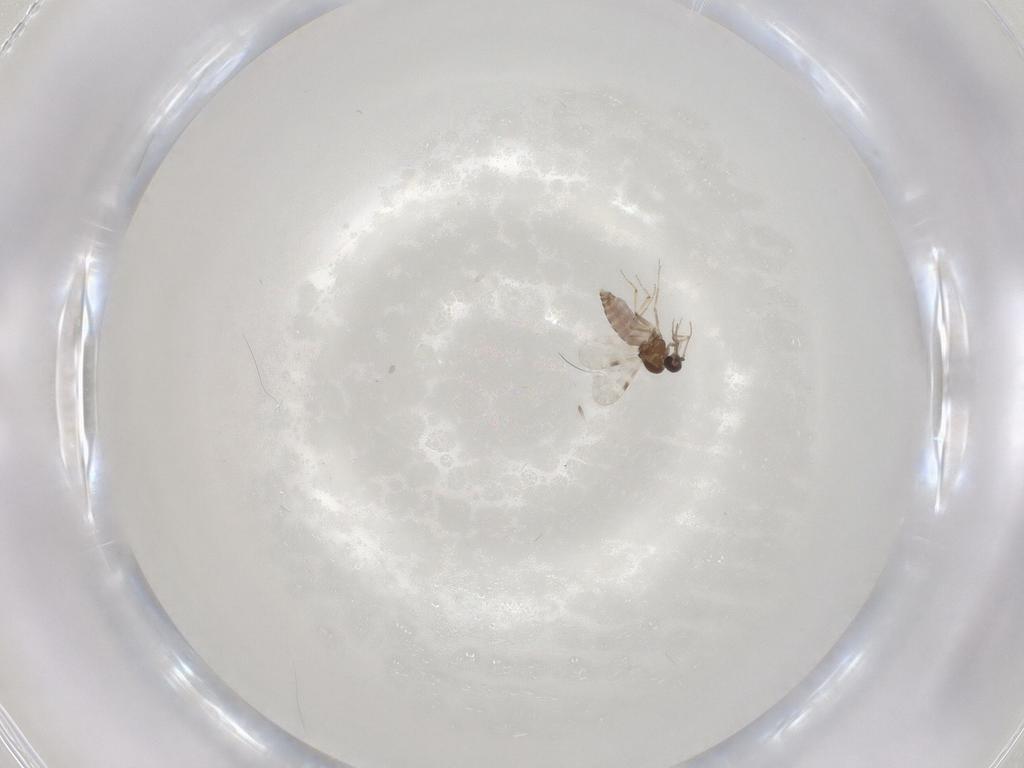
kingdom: Animalia
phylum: Arthropoda
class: Insecta
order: Diptera
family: Mycetophilidae
